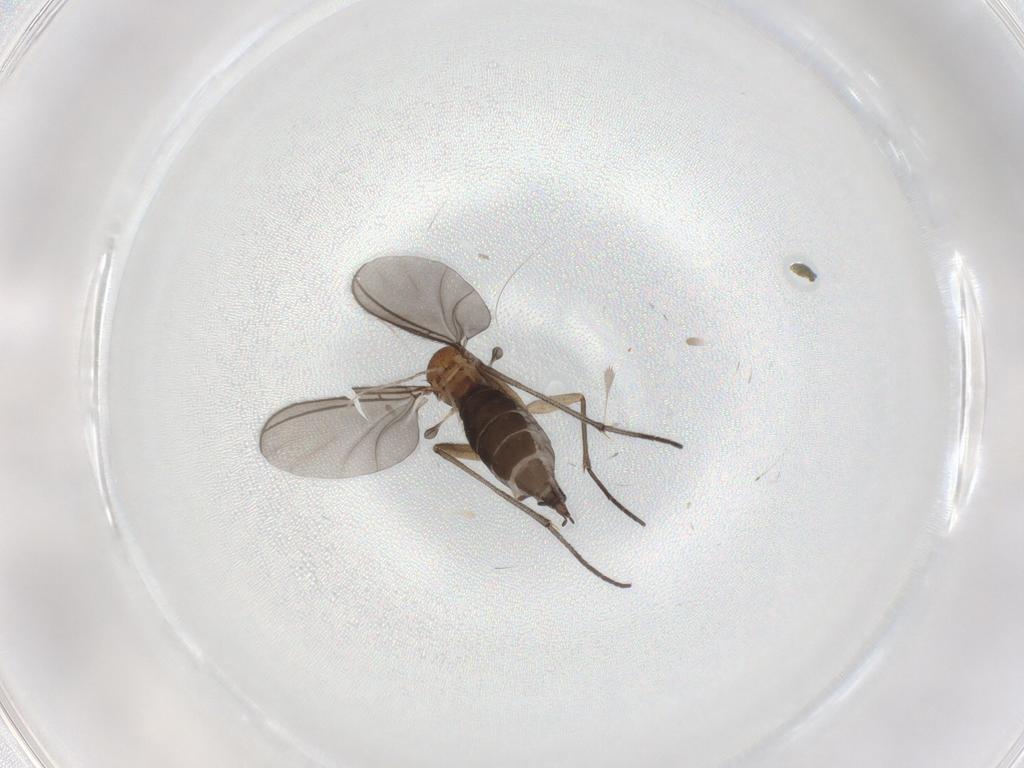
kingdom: Animalia
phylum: Arthropoda
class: Insecta
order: Diptera
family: Sciaridae
